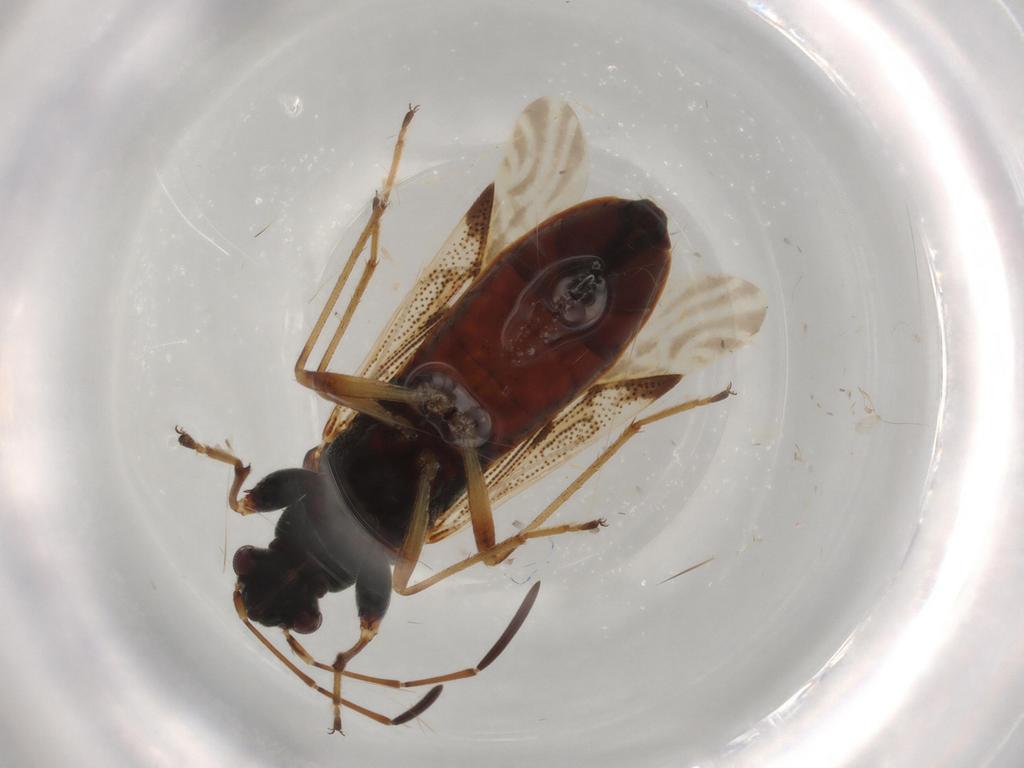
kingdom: Animalia
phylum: Arthropoda
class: Insecta
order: Hemiptera
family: Rhyparochromidae
